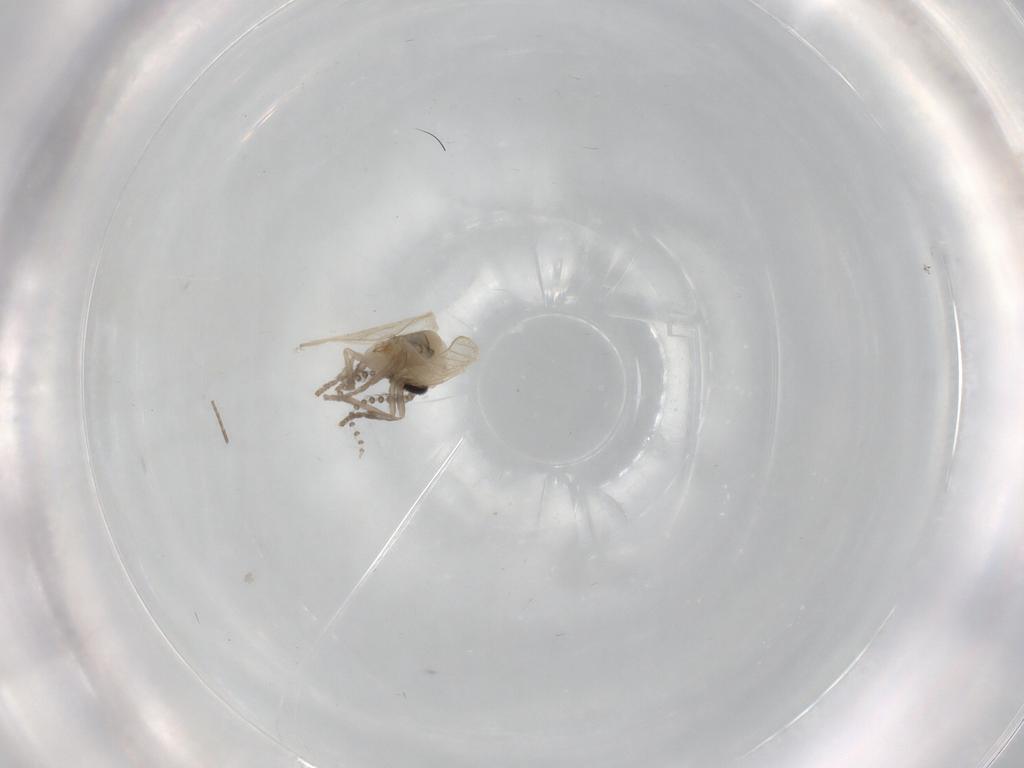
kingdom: Animalia
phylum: Arthropoda
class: Insecta
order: Diptera
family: Psychodidae
